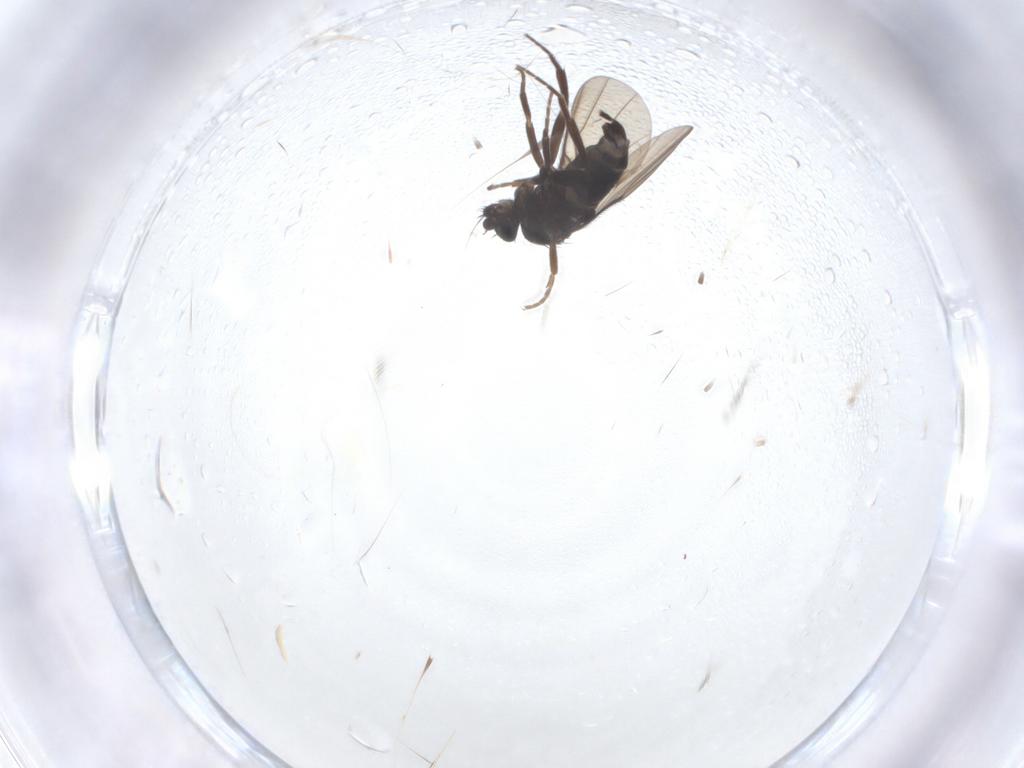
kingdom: Animalia
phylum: Arthropoda
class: Insecta
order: Diptera
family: Phoridae
